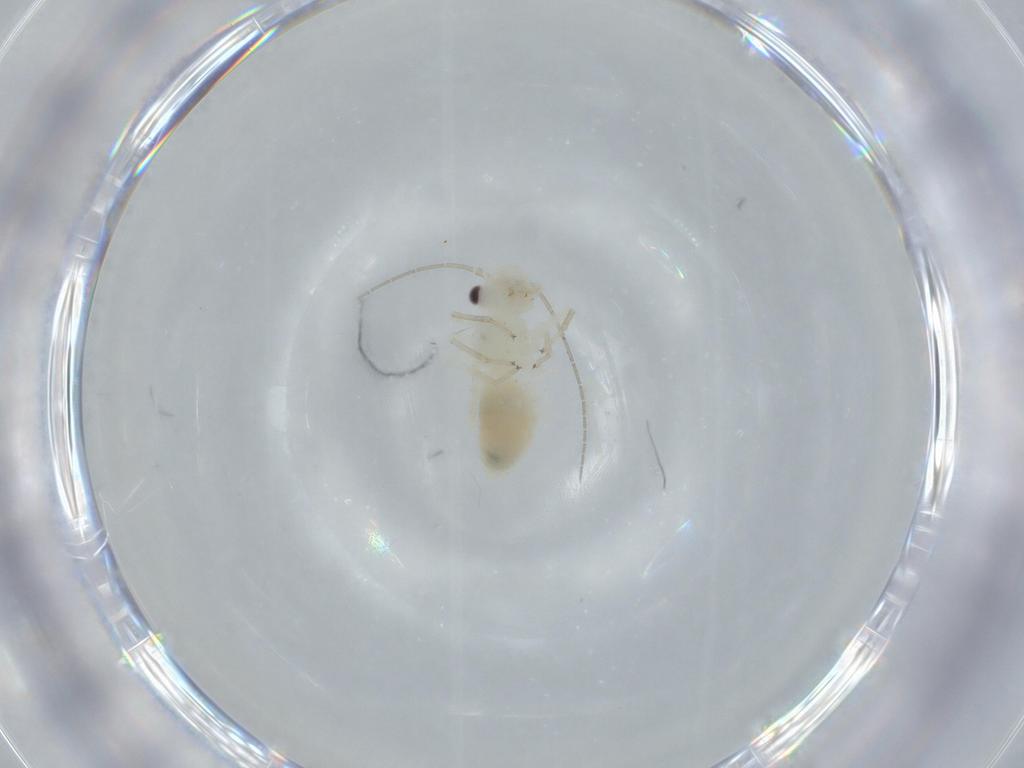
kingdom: Animalia
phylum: Arthropoda
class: Insecta
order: Psocodea
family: Caeciliusidae
